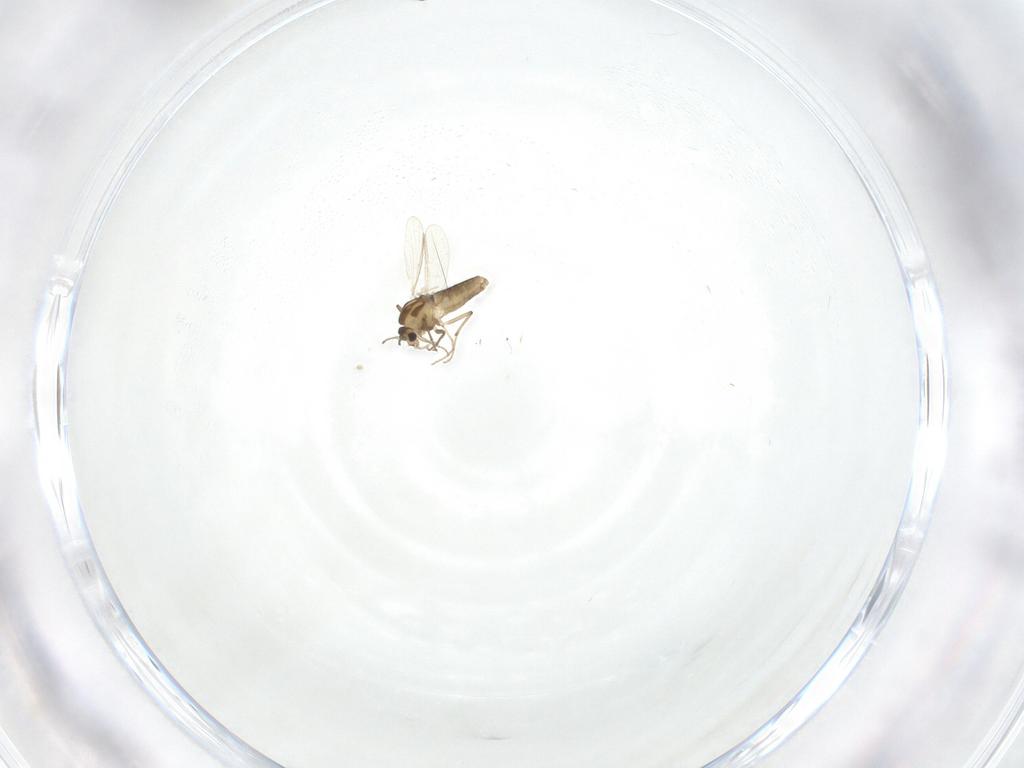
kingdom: Animalia
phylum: Arthropoda
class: Insecta
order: Diptera
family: Chironomidae
